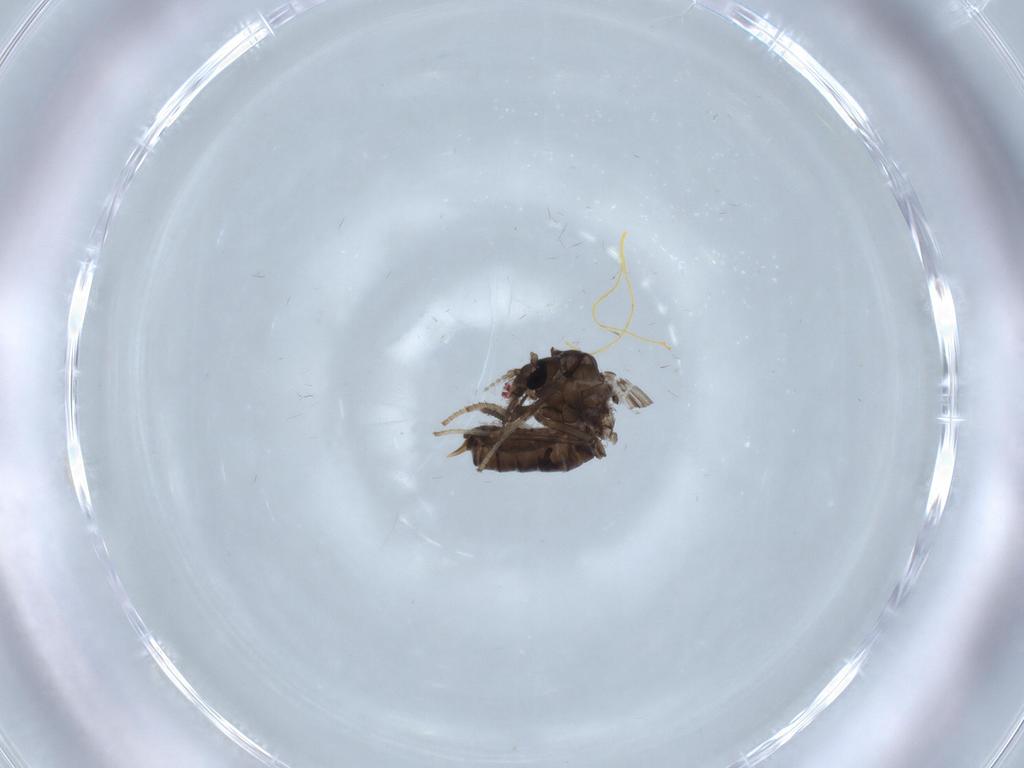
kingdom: Animalia
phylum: Arthropoda
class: Insecta
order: Diptera
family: Psychodidae
